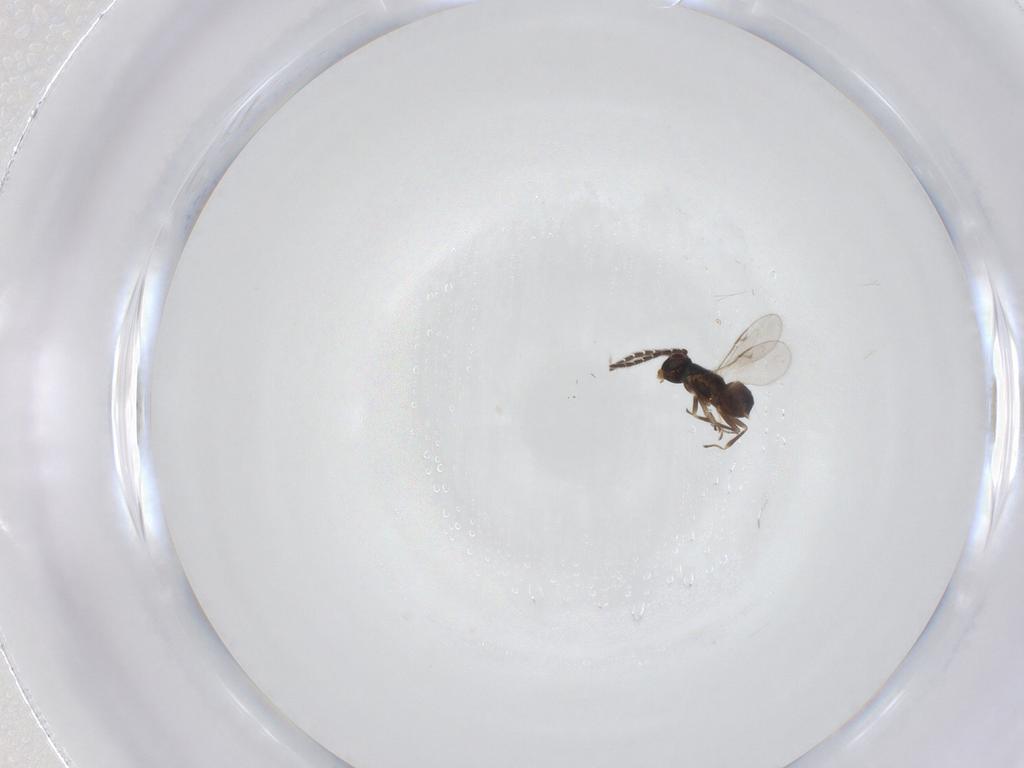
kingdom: Animalia
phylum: Arthropoda
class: Insecta
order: Hymenoptera
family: Encyrtidae
